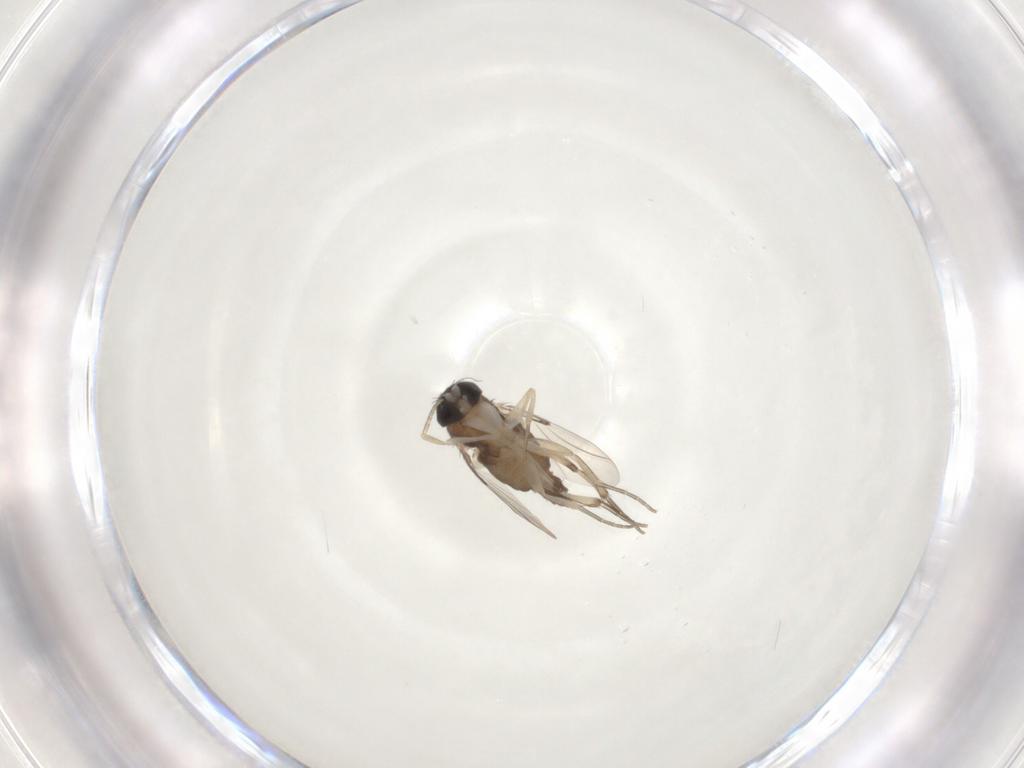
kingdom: Animalia
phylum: Arthropoda
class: Insecta
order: Diptera
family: Phoridae
